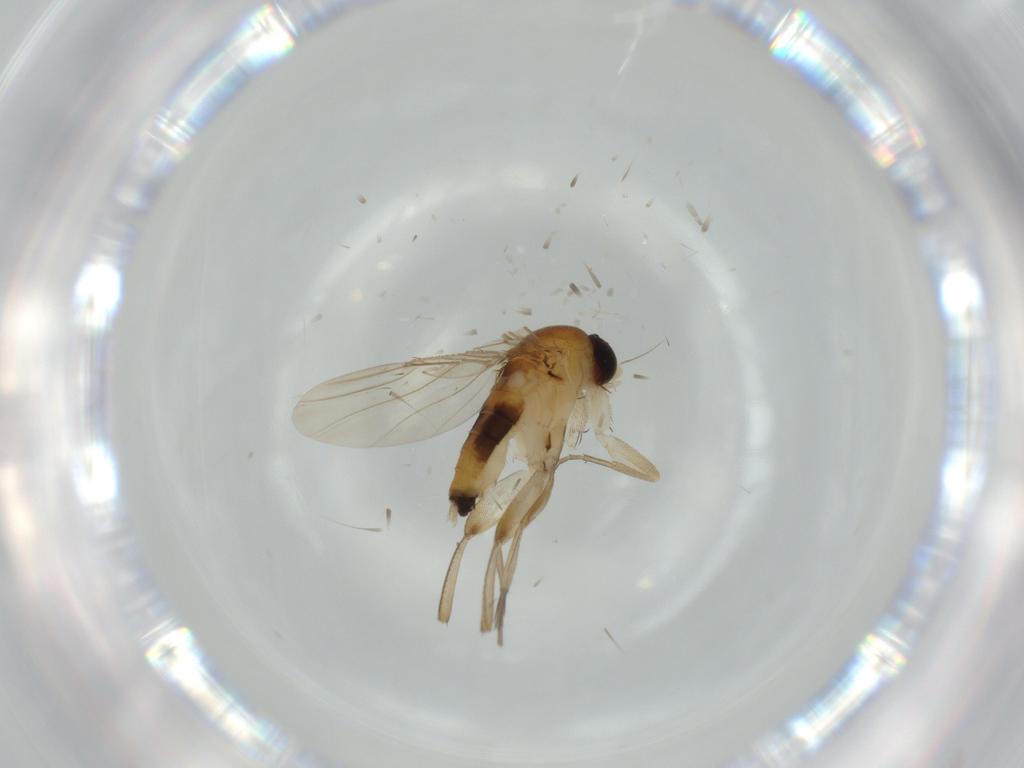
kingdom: Animalia
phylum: Arthropoda
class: Insecta
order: Diptera
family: Phoridae
